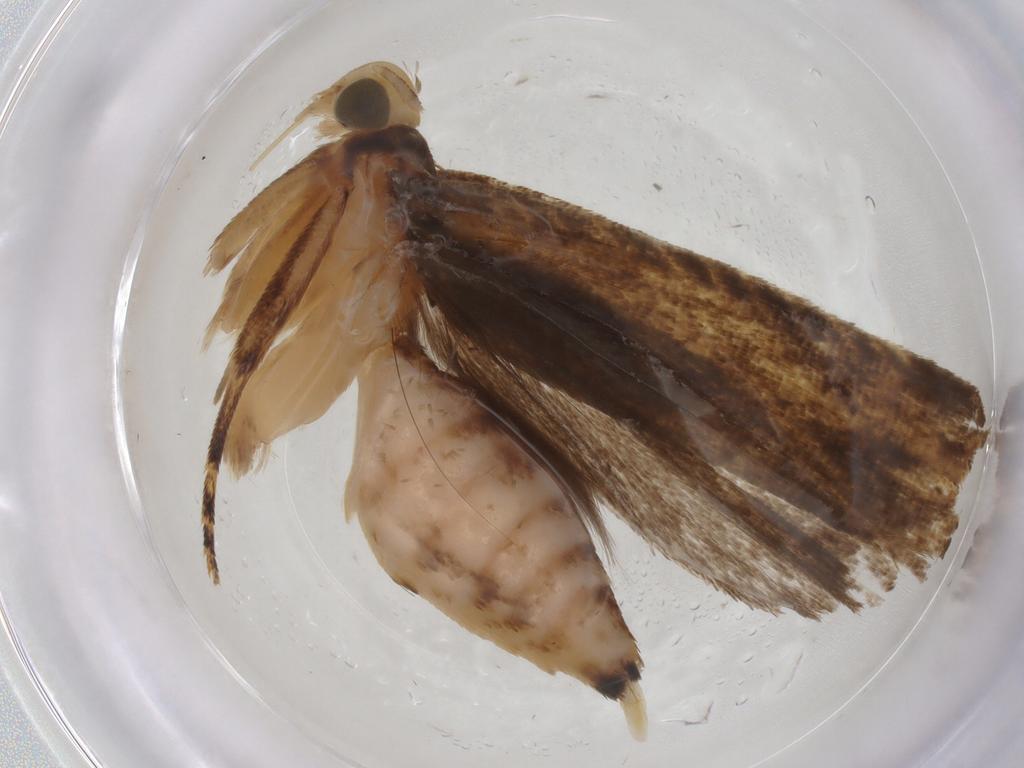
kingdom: Animalia
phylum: Arthropoda
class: Insecta
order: Lepidoptera
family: Gelechiidae
